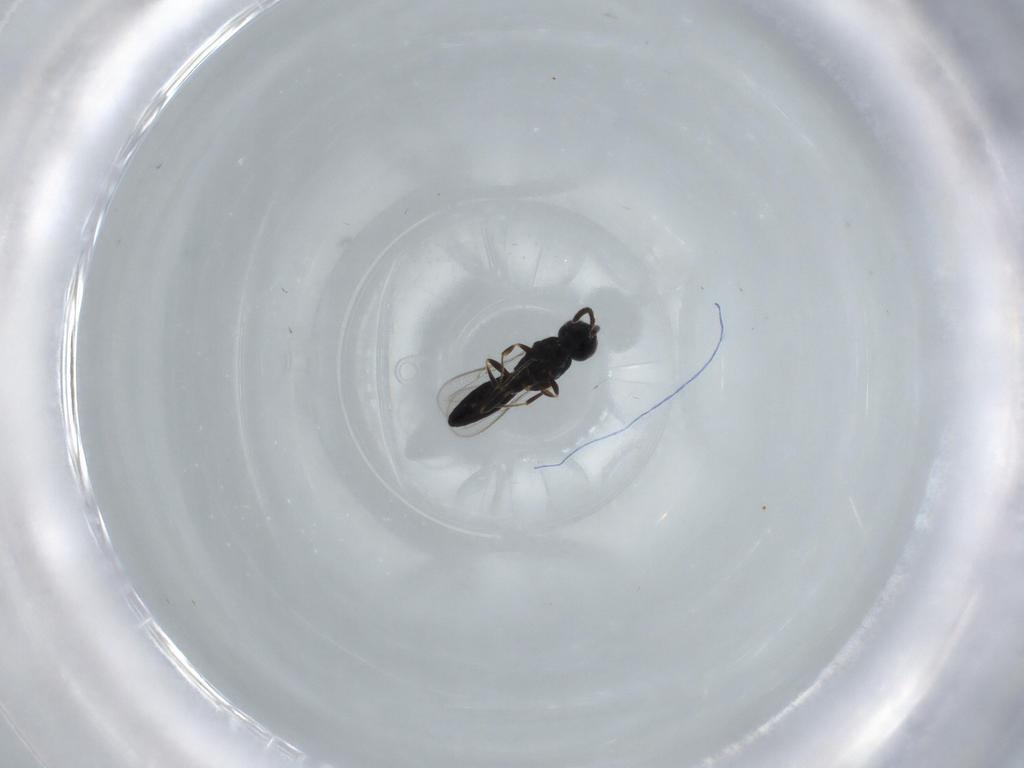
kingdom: Animalia
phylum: Arthropoda
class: Insecta
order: Hymenoptera
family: Scelionidae
